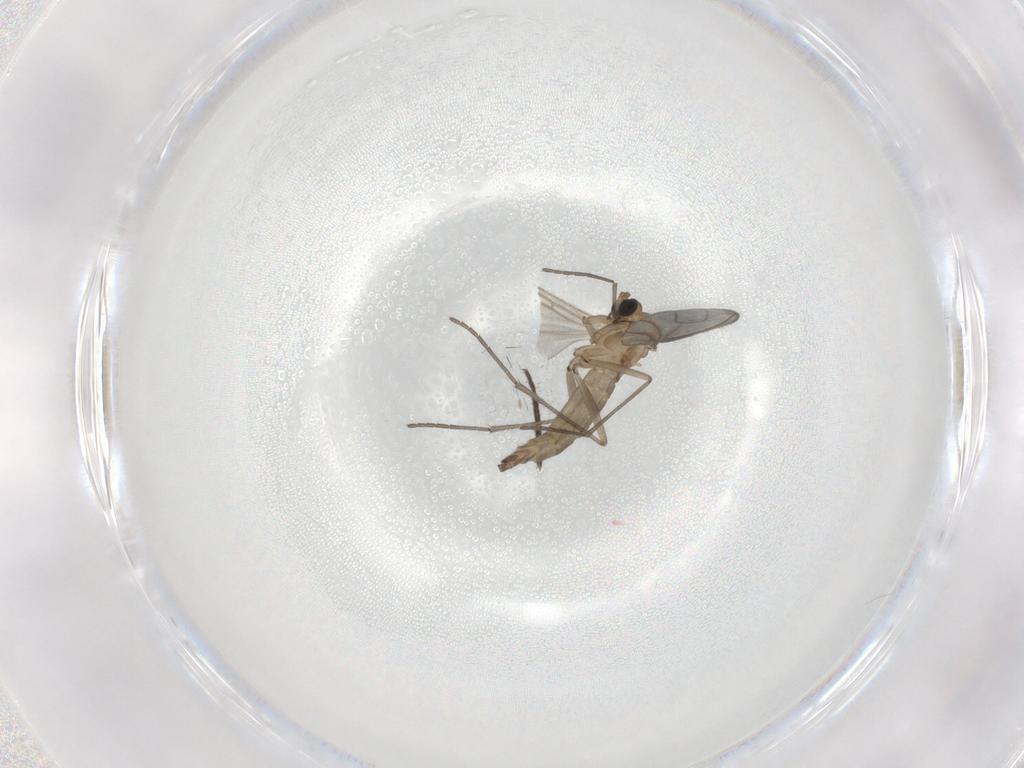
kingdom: Animalia
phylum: Arthropoda
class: Insecta
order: Diptera
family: Sciaridae
